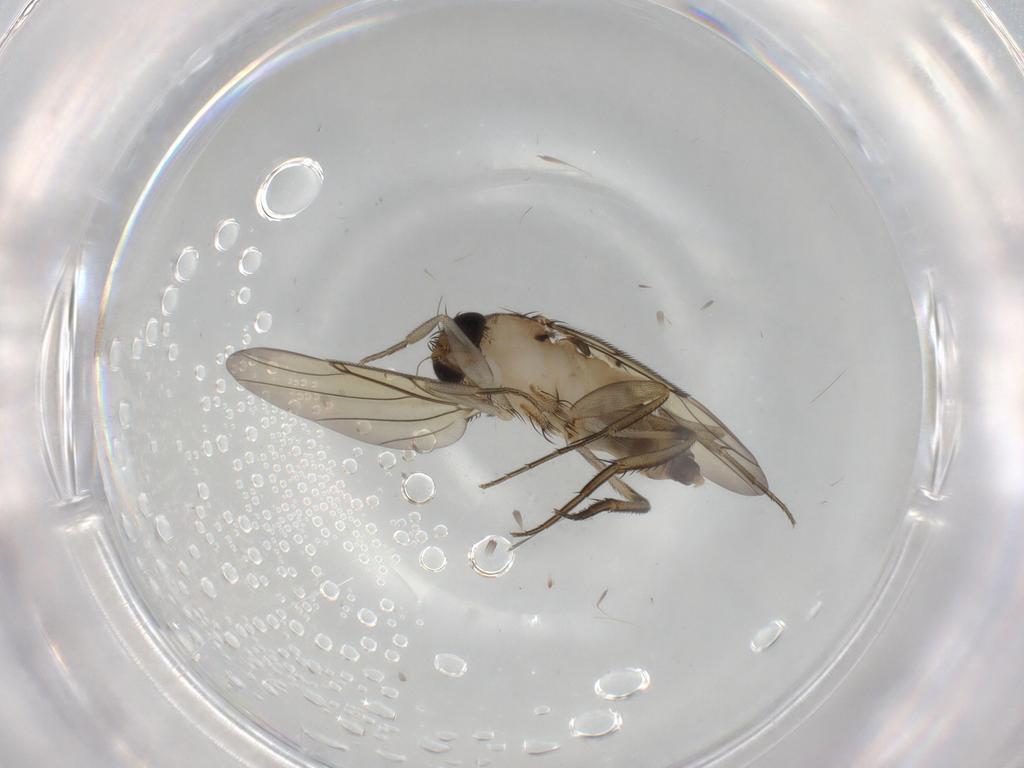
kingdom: Animalia
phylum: Arthropoda
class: Insecta
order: Diptera
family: Phoridae
